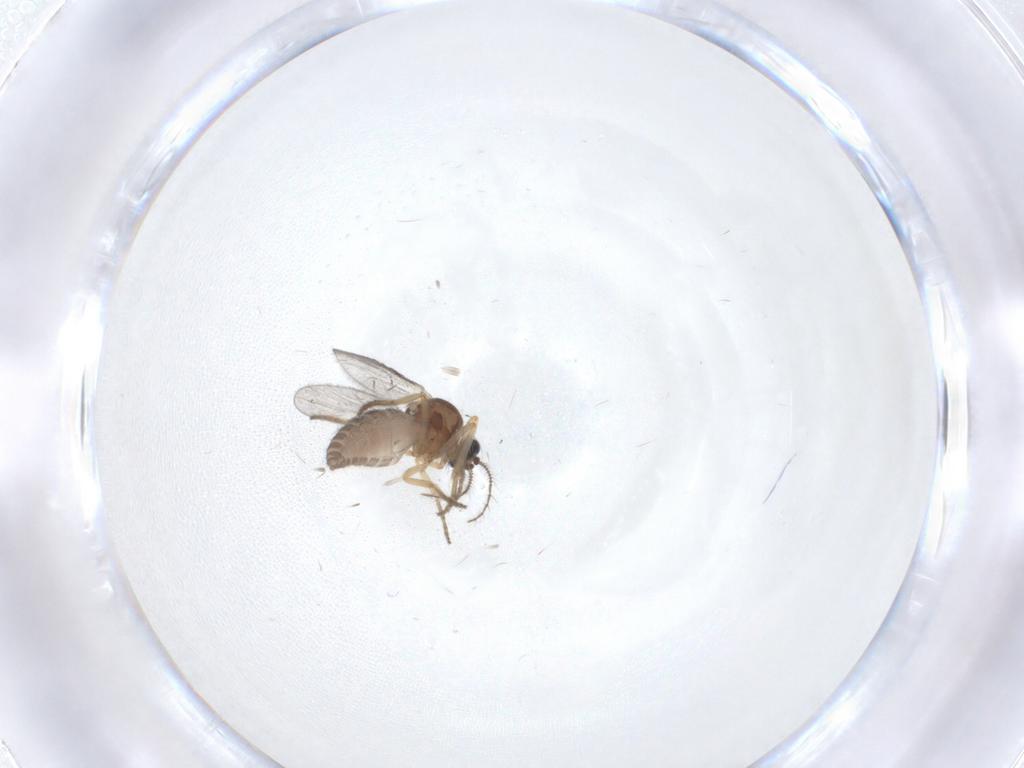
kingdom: Animalia
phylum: Arthropoda
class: Insecta
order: Diptera
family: Ceratopogonidae
